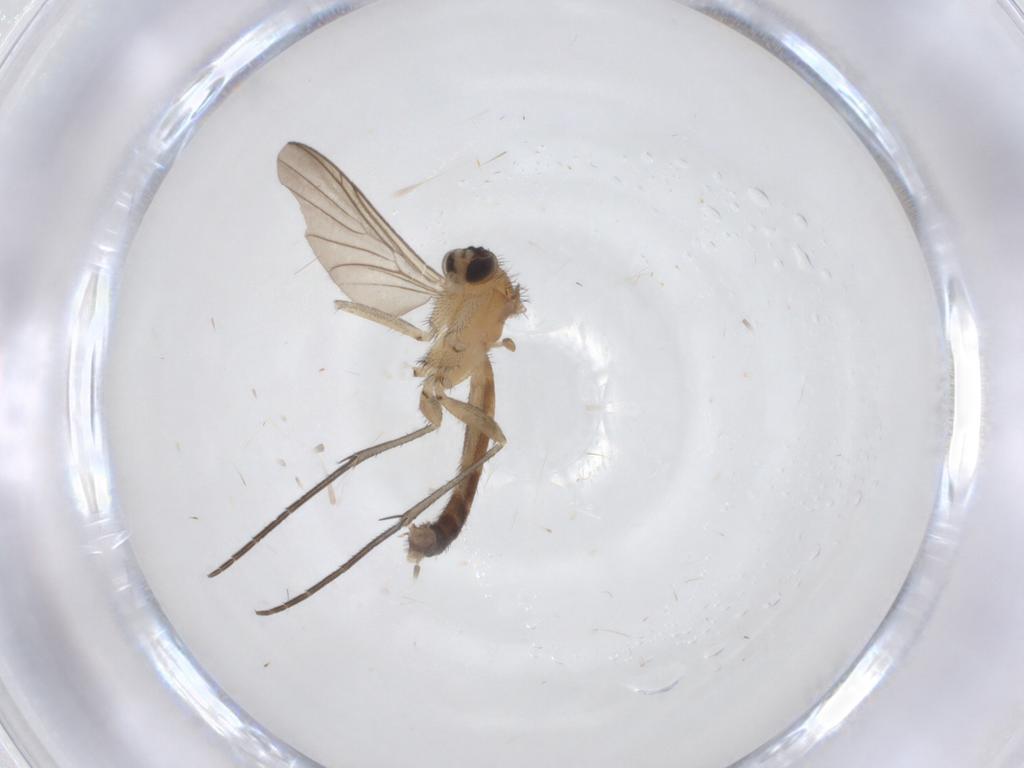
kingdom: Animalia
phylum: Arthropoda
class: Insecta
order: Diptera
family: Keroplatidae
